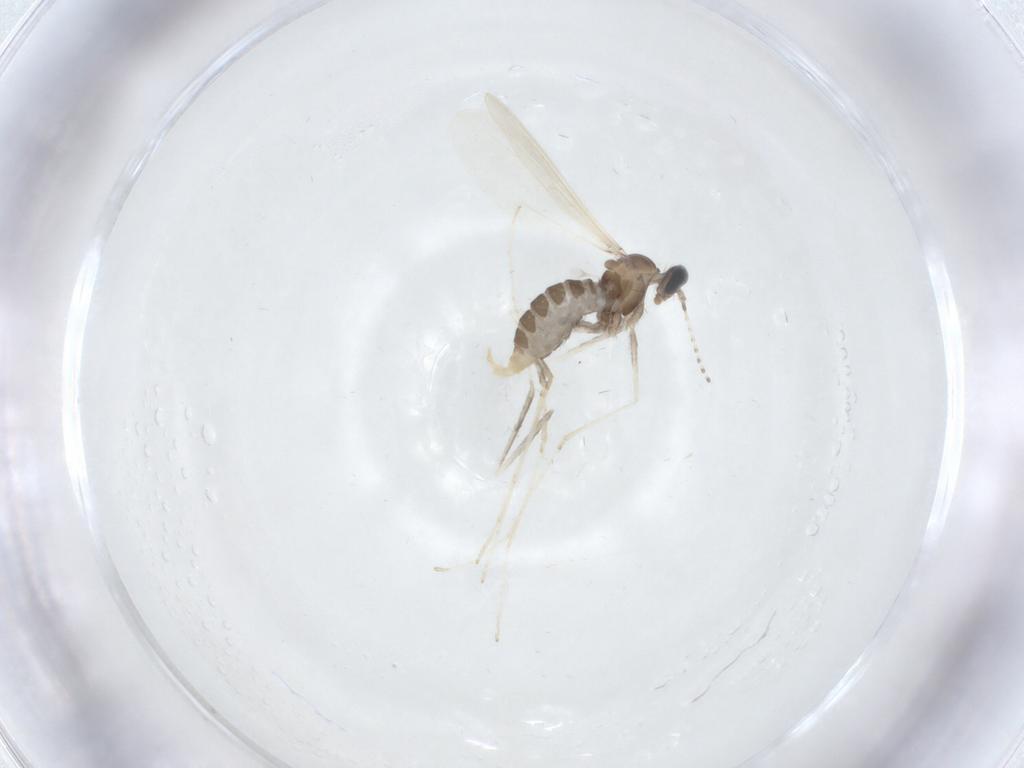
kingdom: Animalia
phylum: Arthropoda
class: Insecta
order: Diptera
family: Cecidomyiidae
